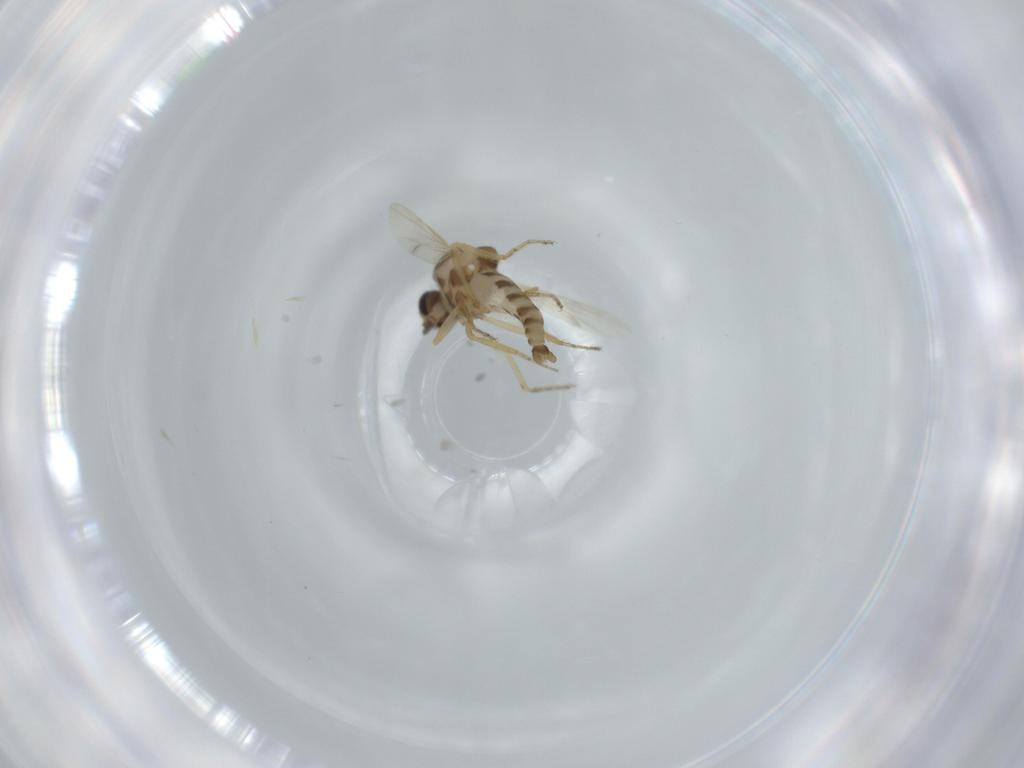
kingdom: Animalia
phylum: Arthropoda
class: Insecta
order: Diptera
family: Ceratopogonidae
